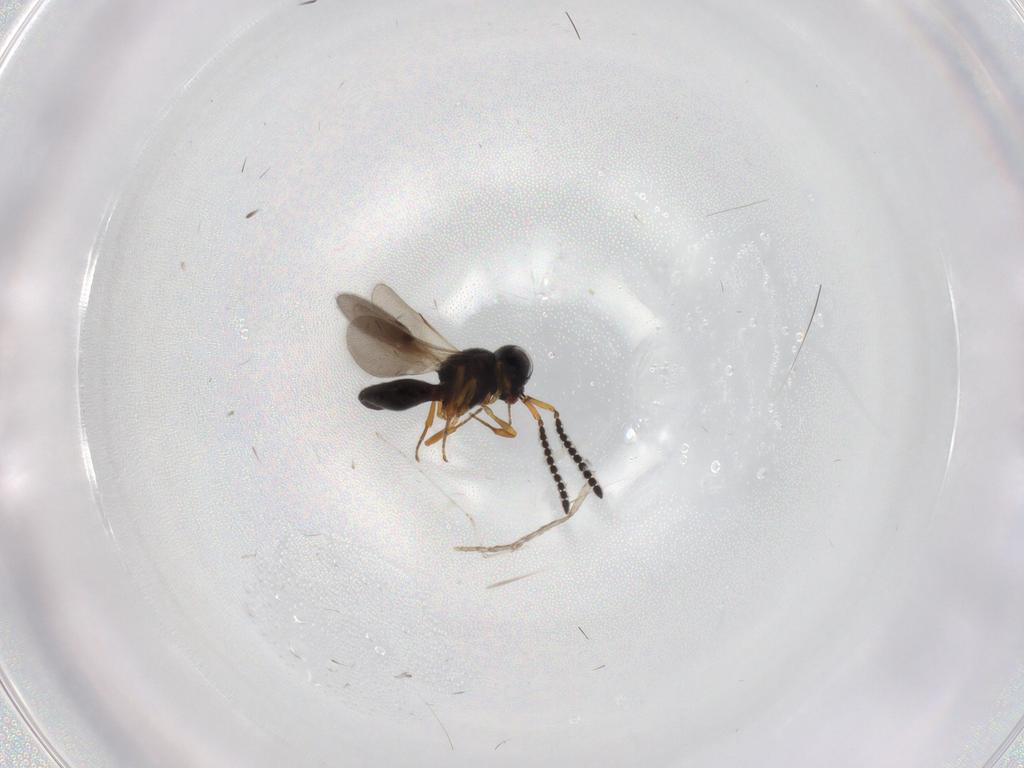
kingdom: Animalia
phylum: Arthropoda
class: Insecta
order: Hymenoptera
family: Scelionidae
